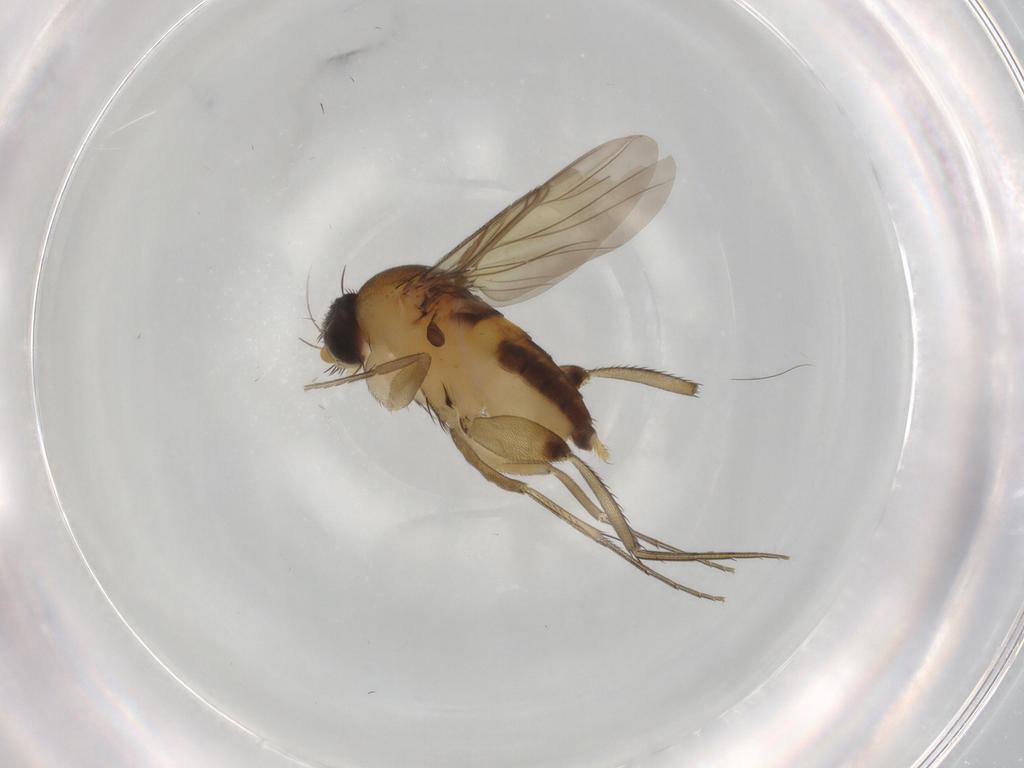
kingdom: Animalia
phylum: Arthropoda
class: Insecta
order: Diptera
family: Phoridae
